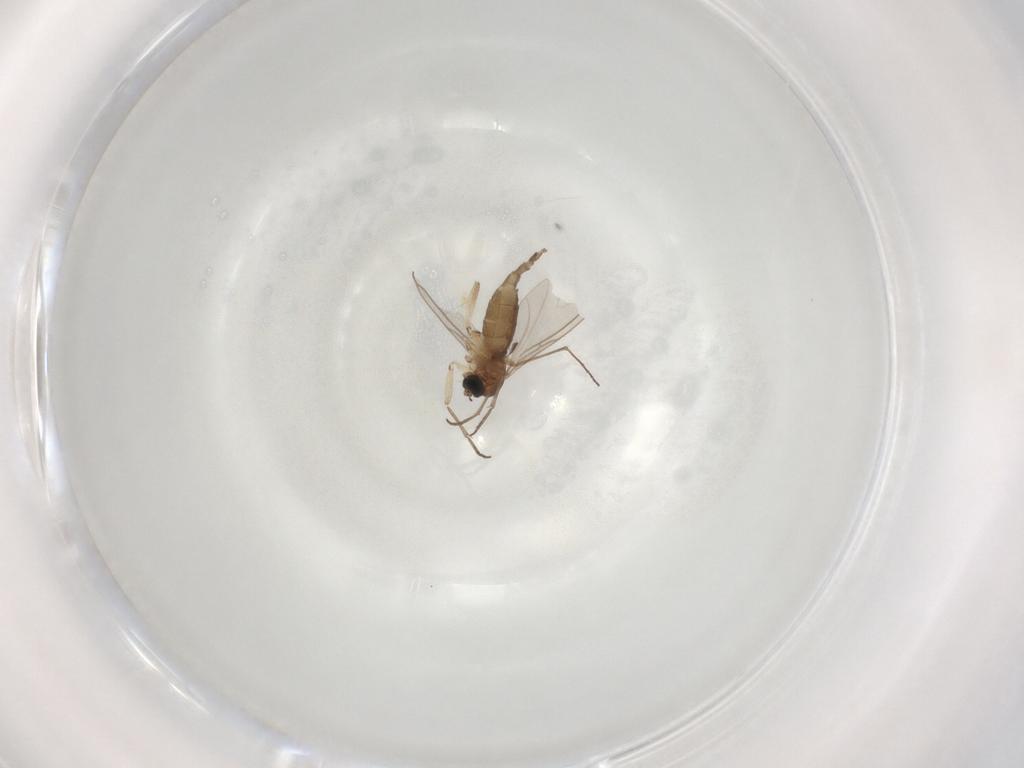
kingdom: Animalia
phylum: Arthropoda
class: Insecta
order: Diptera
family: Sciaridae
